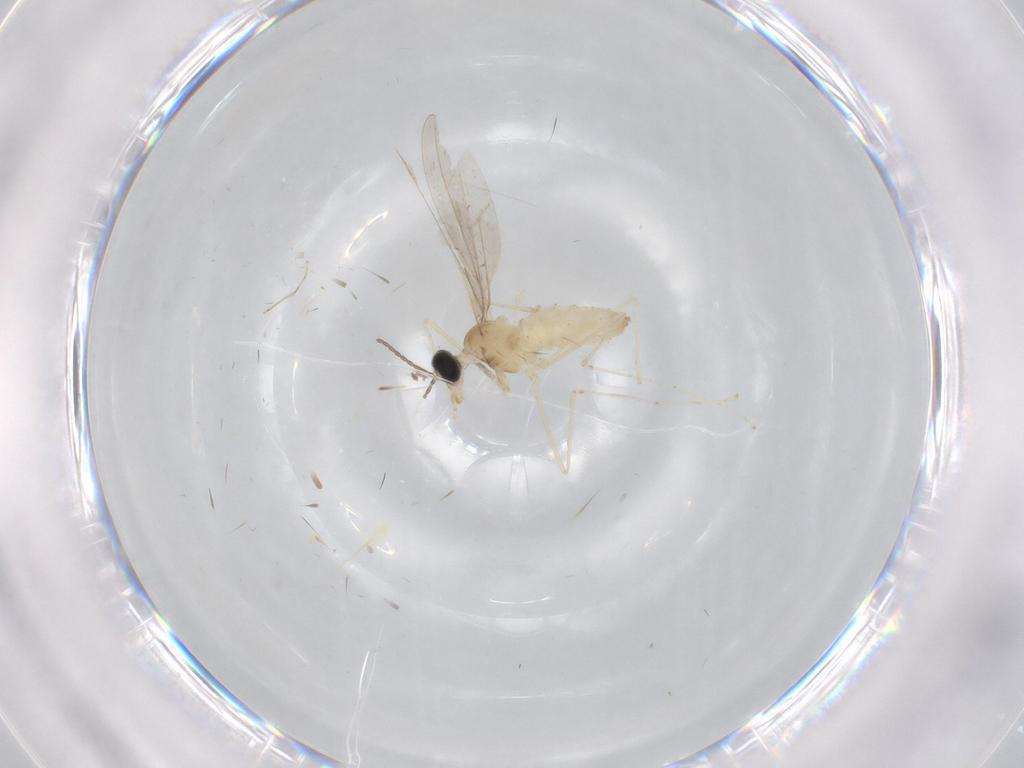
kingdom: Animalia
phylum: Arthropoda
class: Insecta
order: Diptera
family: Cecidomyiidae
